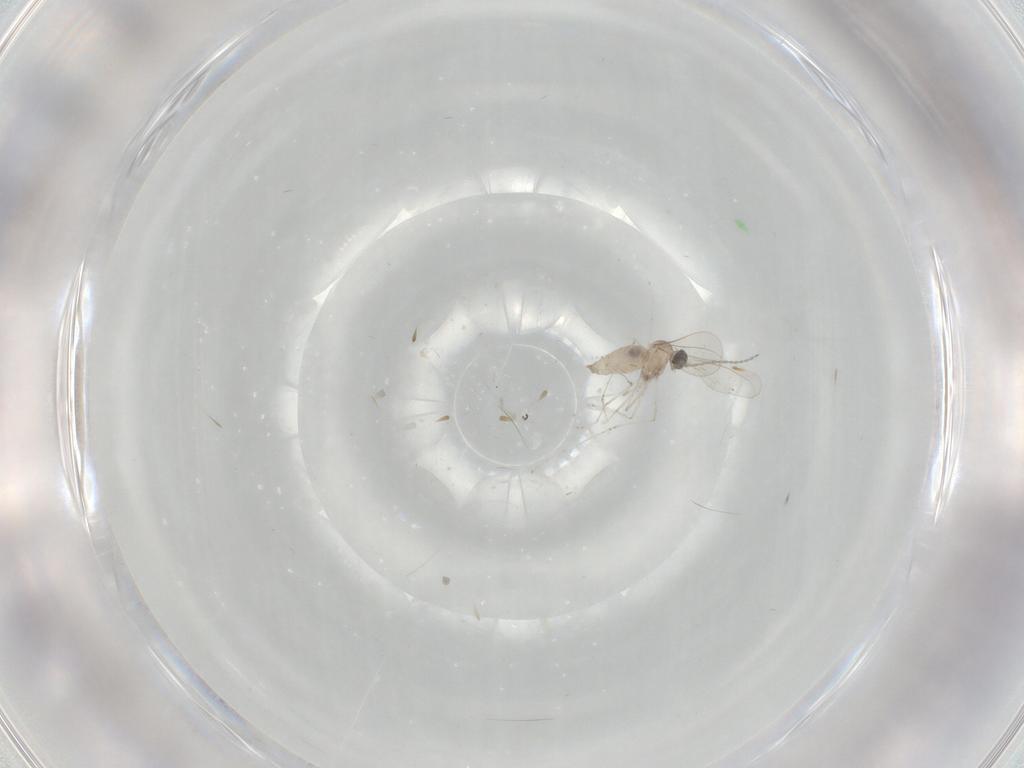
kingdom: Animalia
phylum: Arthropoda
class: Insecta
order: Diptera
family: Cecidomyiidae
